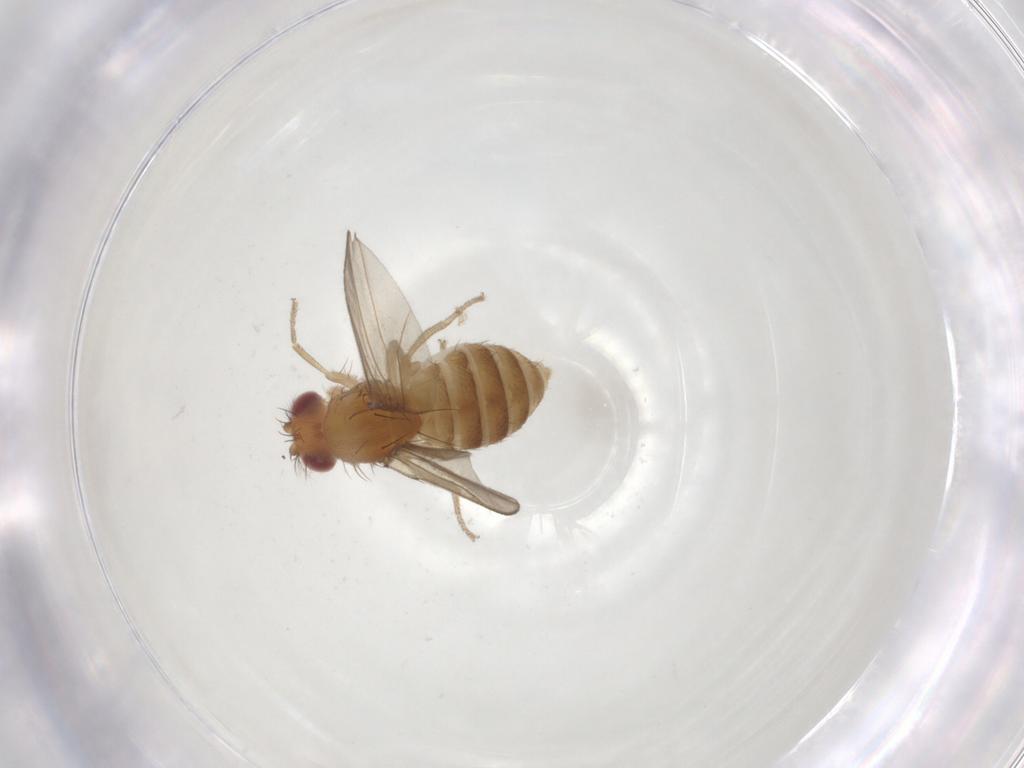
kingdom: Animalia
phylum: Arthropoda
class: Insecta
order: Diptera
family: Drosophilidae
